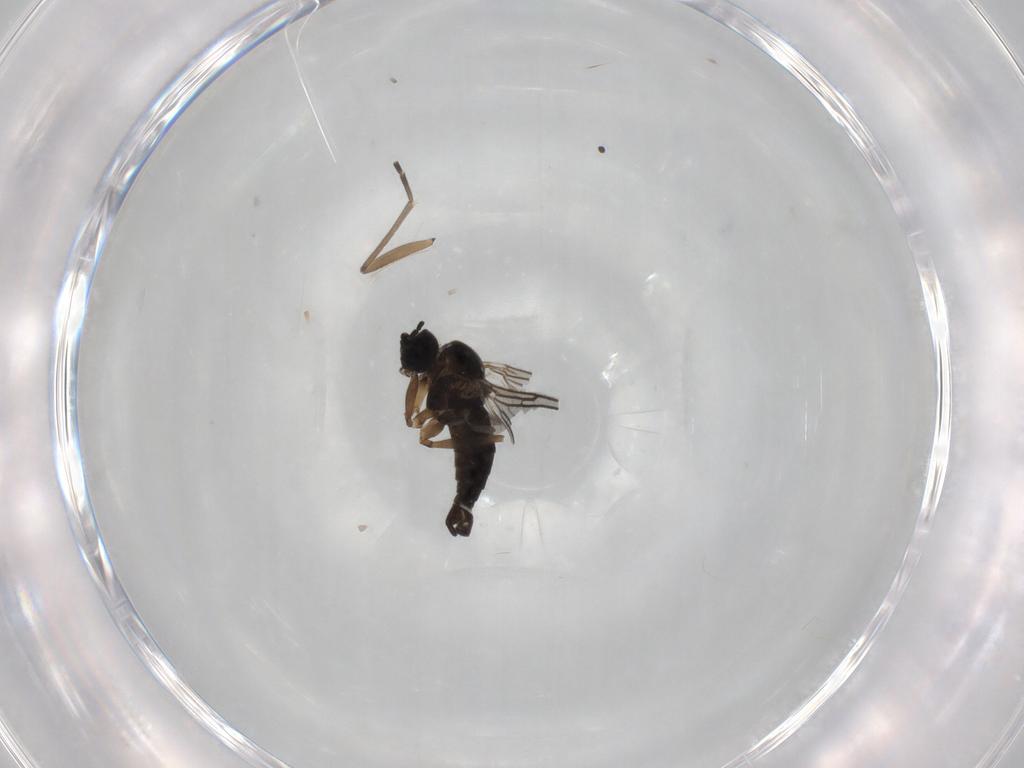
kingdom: Animalia
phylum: Arthropoda
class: Insecta
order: Diptera
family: Sciaridae
